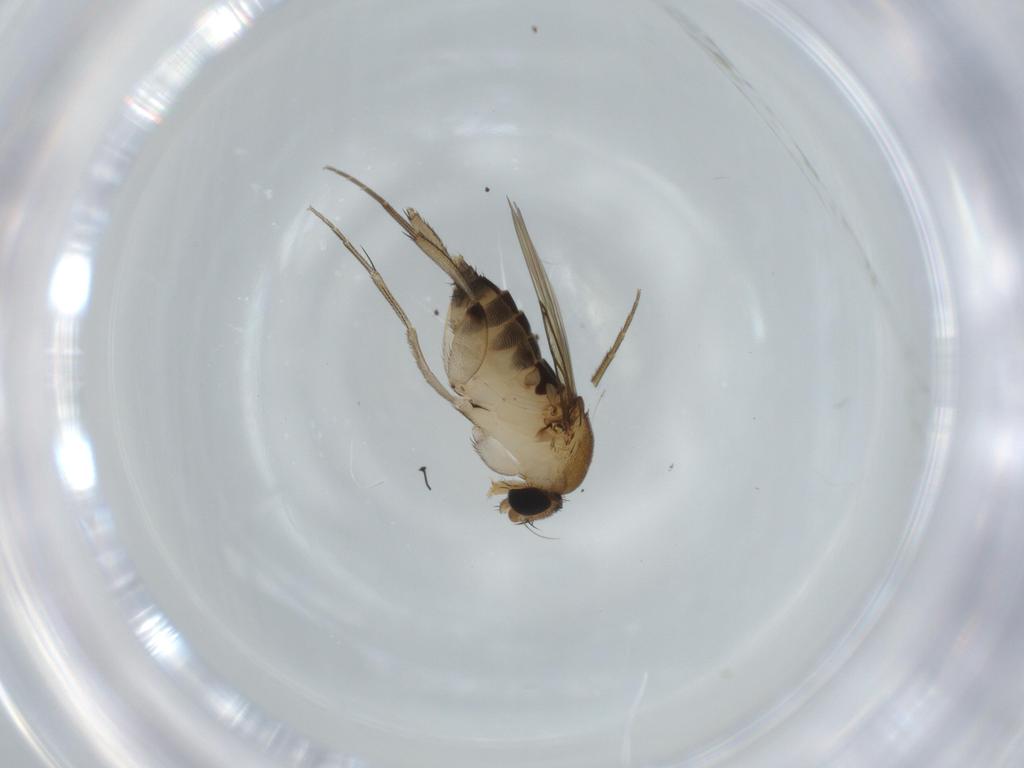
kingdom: Animalia
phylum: Arthropoda
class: Insecta
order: Diptera
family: Phoridae
